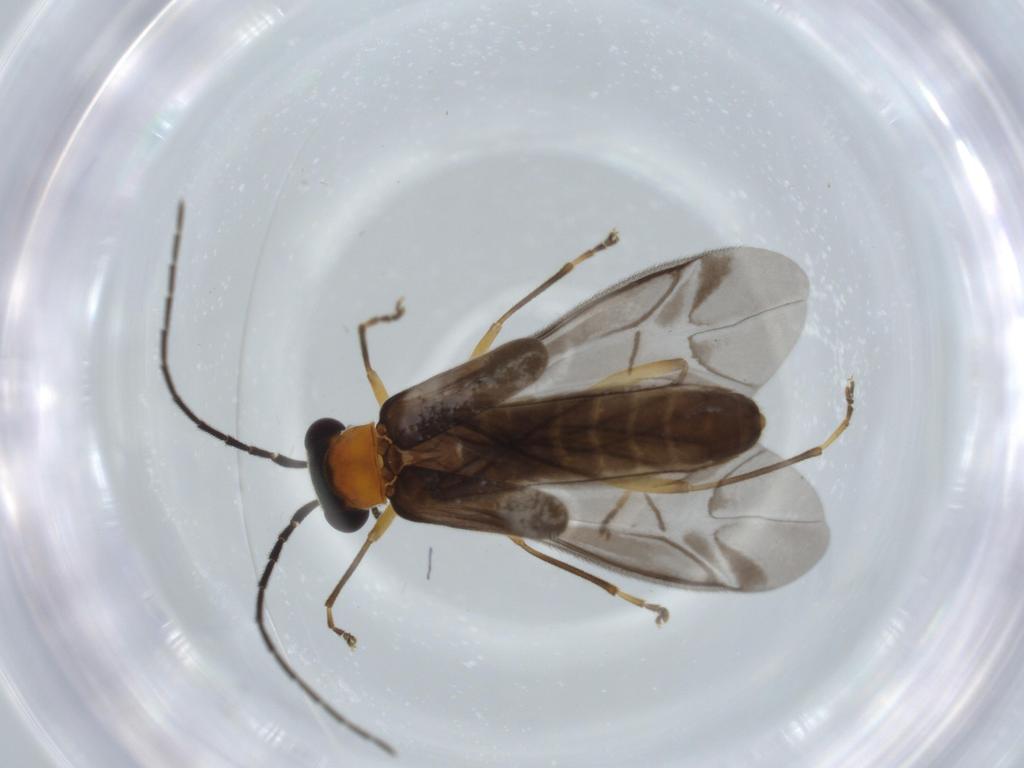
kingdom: Animalia
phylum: Arthropoda
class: Insecta
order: Coleoptera
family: Cantharidae
